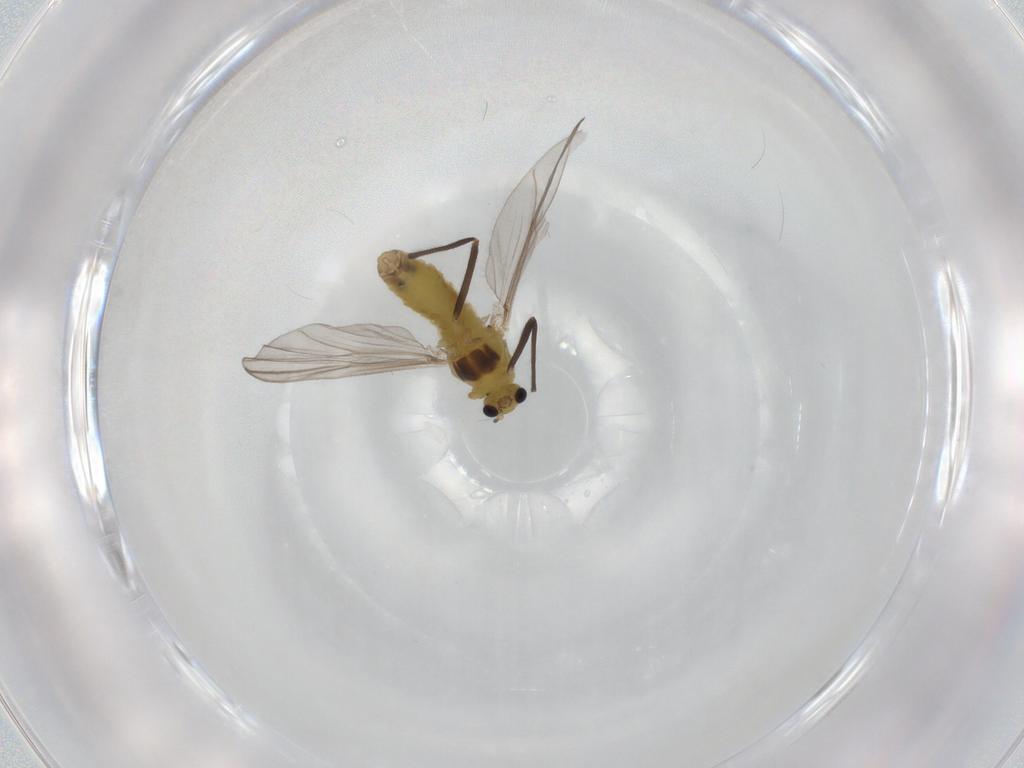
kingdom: Animalia
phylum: Arthropoda
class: Insecta
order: Diptera
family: Chironomidae
